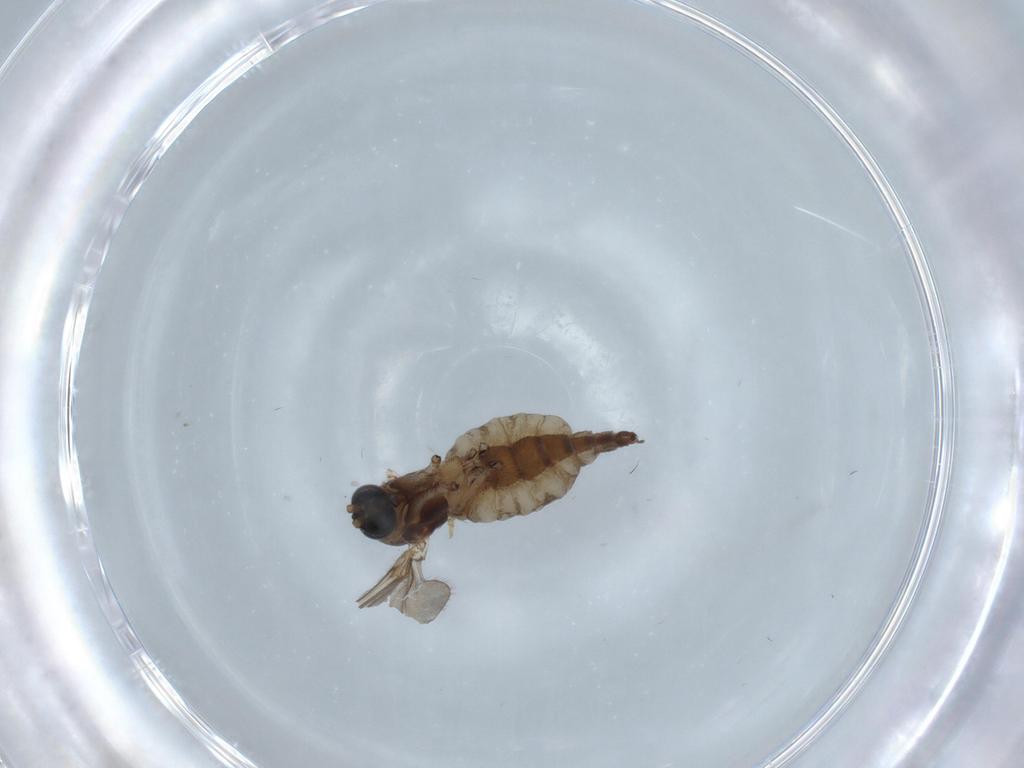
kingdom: Animalia
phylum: Arthropoda
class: Insecta
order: Diptera
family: Sciaridae
